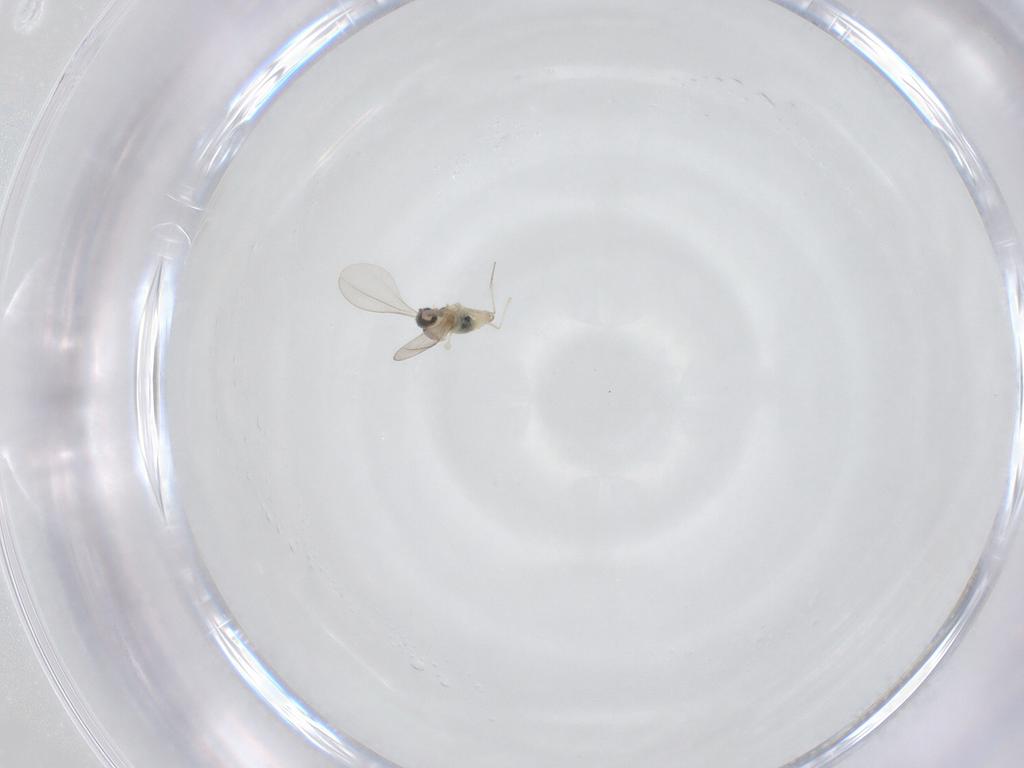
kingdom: Animalia
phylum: Arthropoda
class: Insecta
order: Diptera
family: Cecidomyiidae
